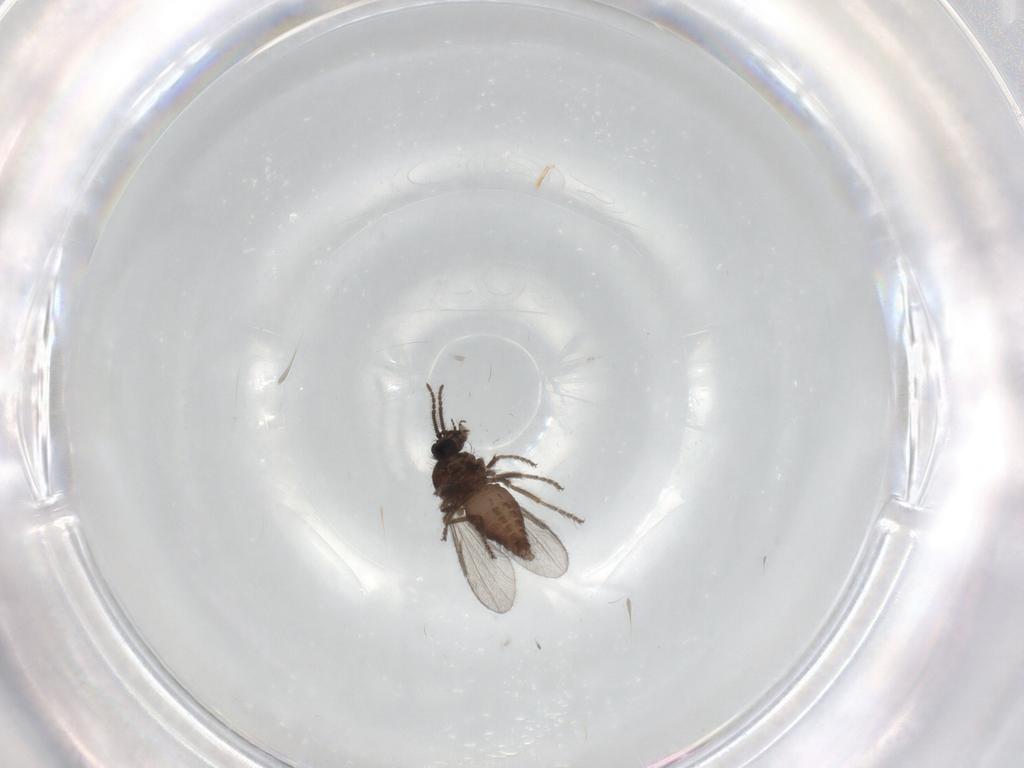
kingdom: Animalia
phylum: Arthropoda
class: Insecta
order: Diptera
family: Ceratopogonidae
